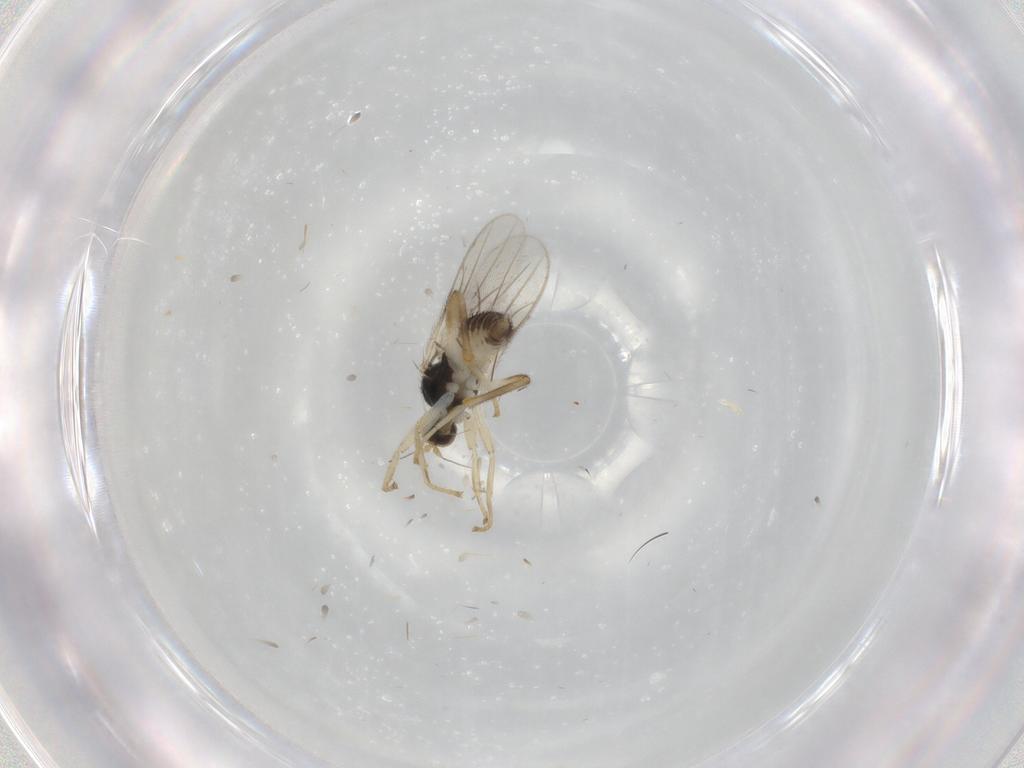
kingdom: Animalia
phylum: Arthropoda
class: Insecta
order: Diptera
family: Hybotidae
